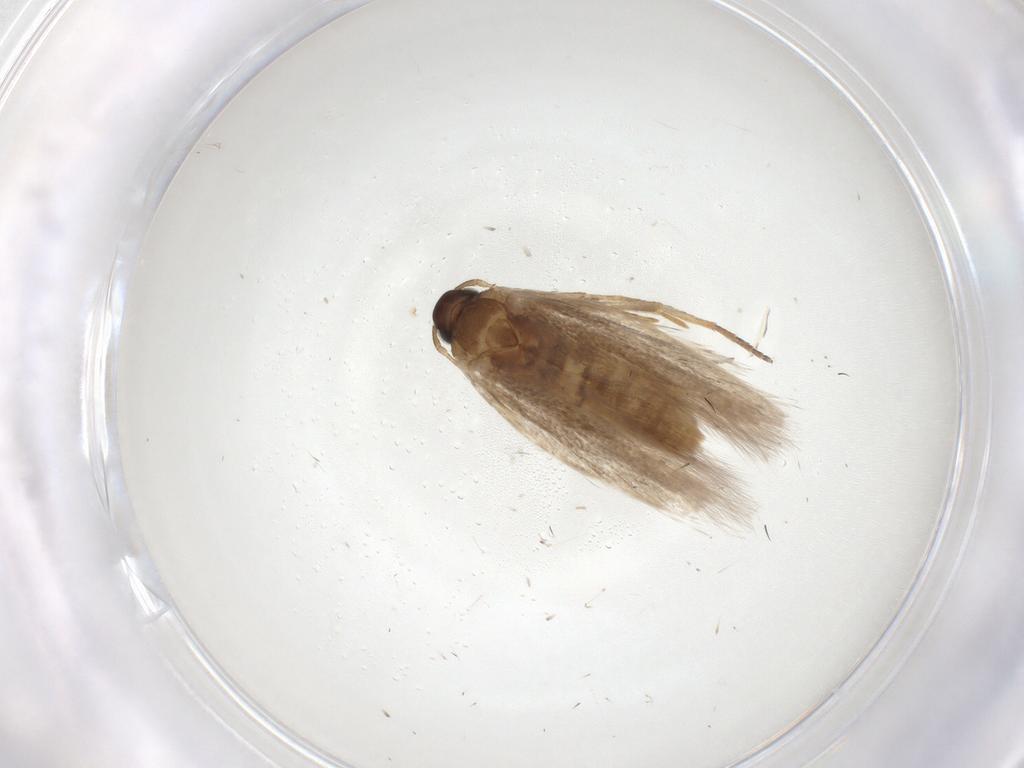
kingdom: Animalia
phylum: Arthropoda
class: Insecta
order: Lepidoptera
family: Gelechiidae
